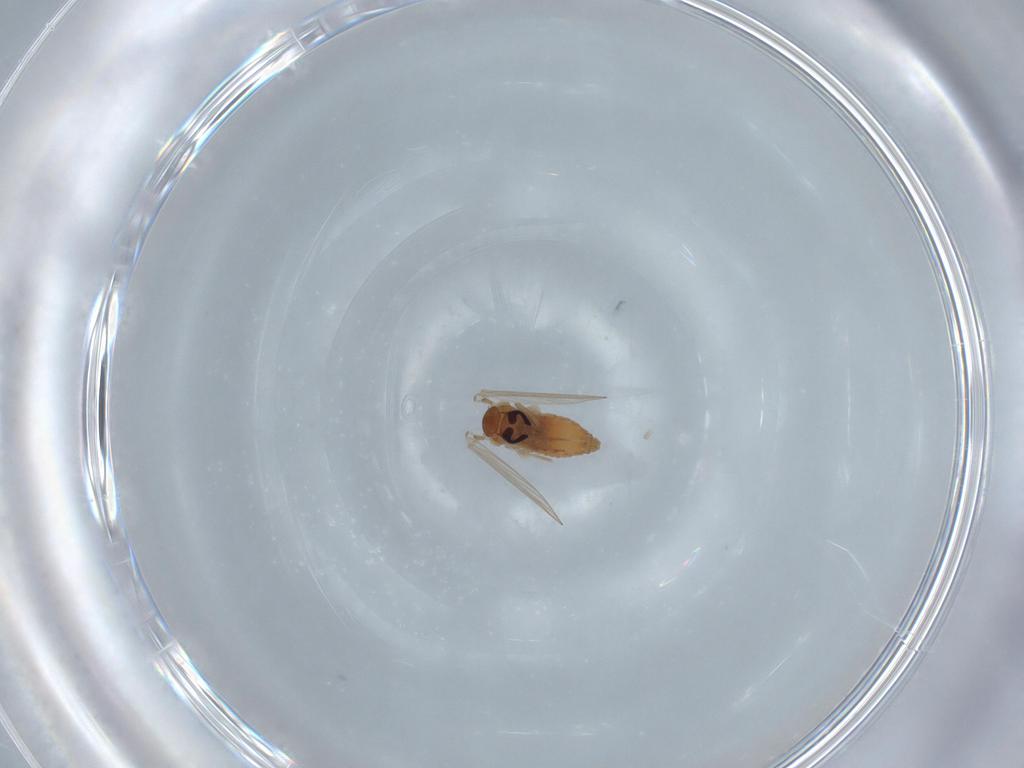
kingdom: Animalia
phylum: Arthropoda
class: Insecta
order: Diptera
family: Psychodidae
